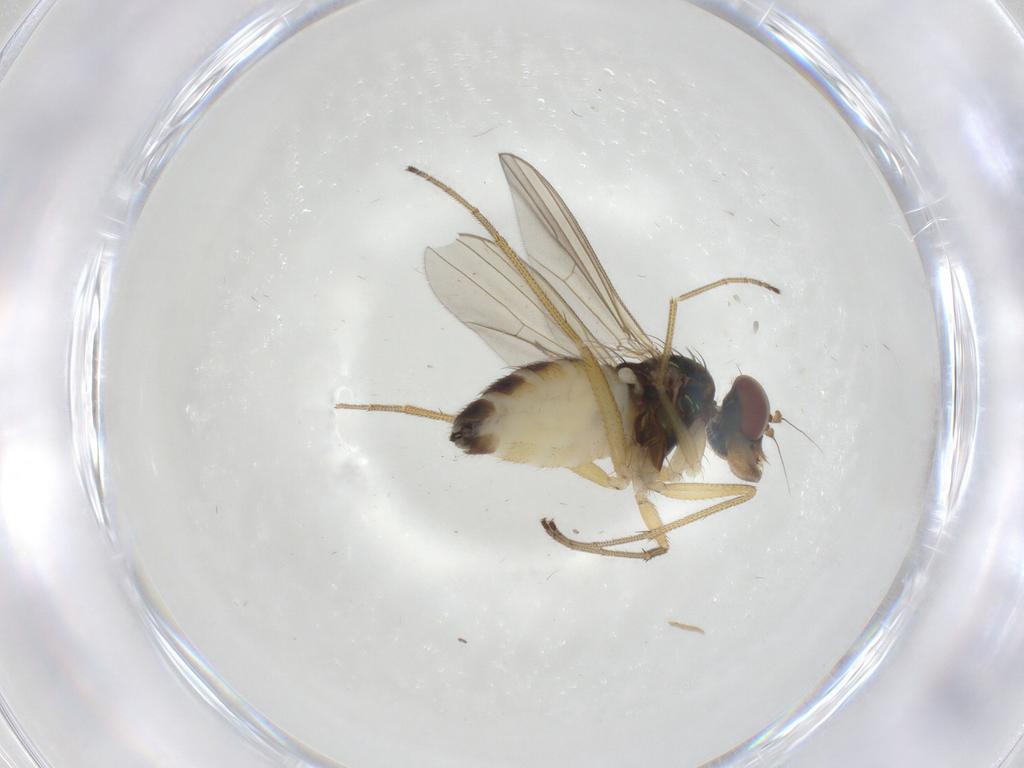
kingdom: Animalia
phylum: Arthropoda
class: Insecta
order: Diptera
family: Dolichopodidae
